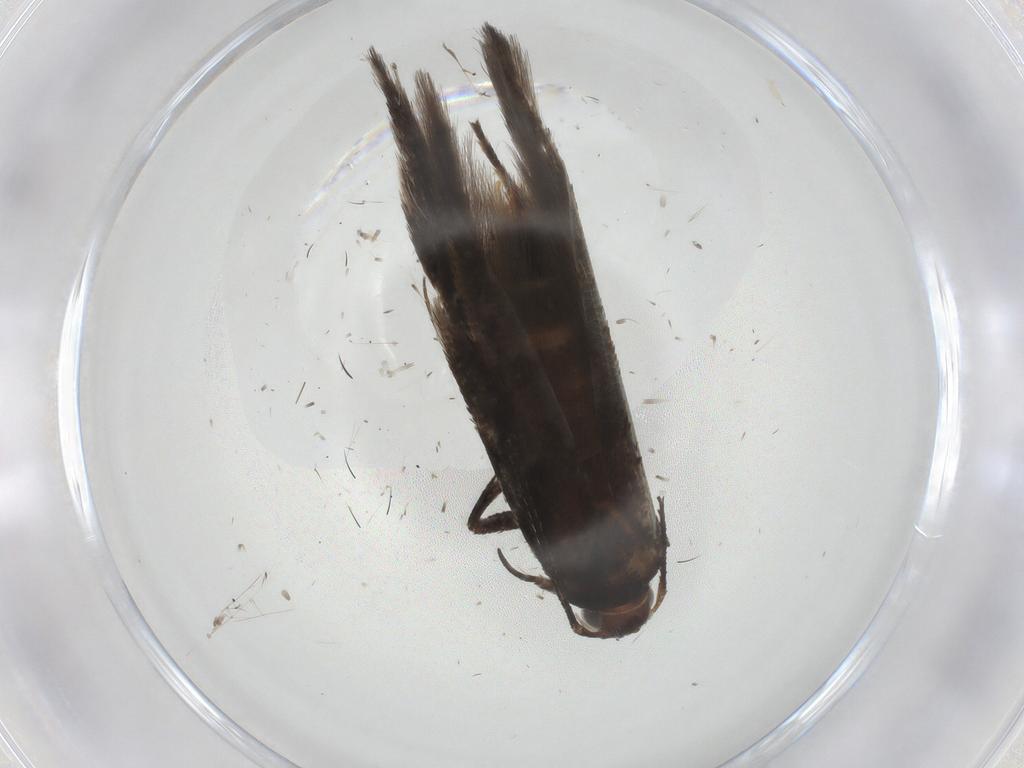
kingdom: Animalia
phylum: Arthropoda
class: Insecta
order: Lepidoptera
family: Gelechiidae
